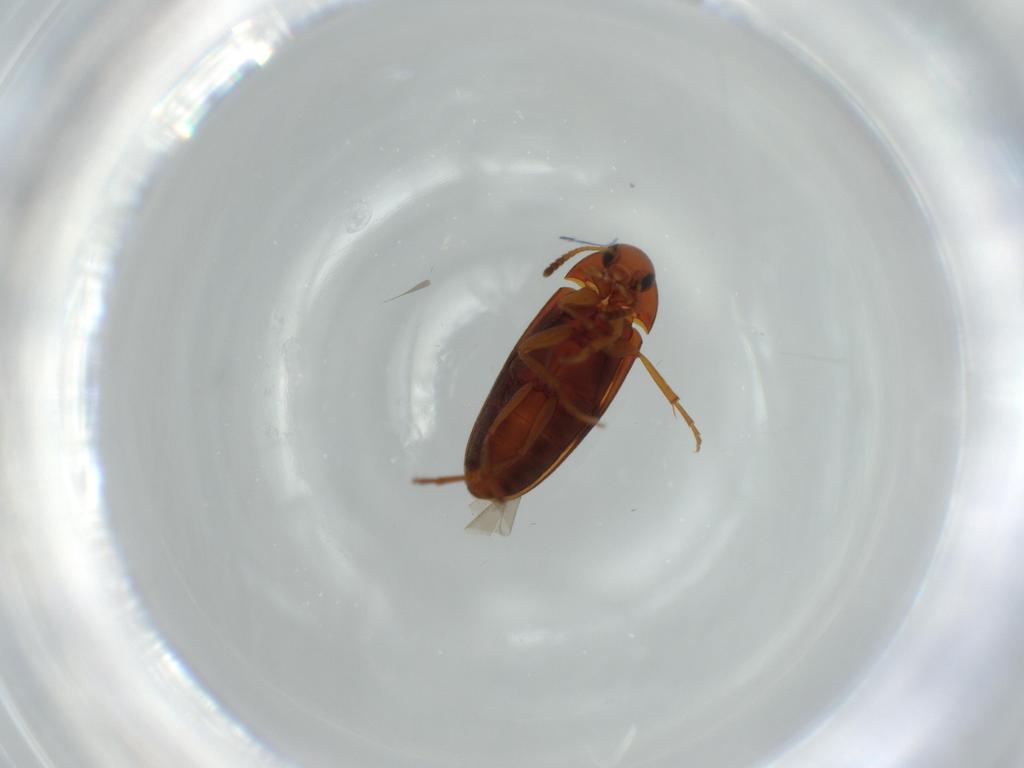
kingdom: Animalia
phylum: Arthropoda
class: Insecta
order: Coleoptera
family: Scraptiidae
